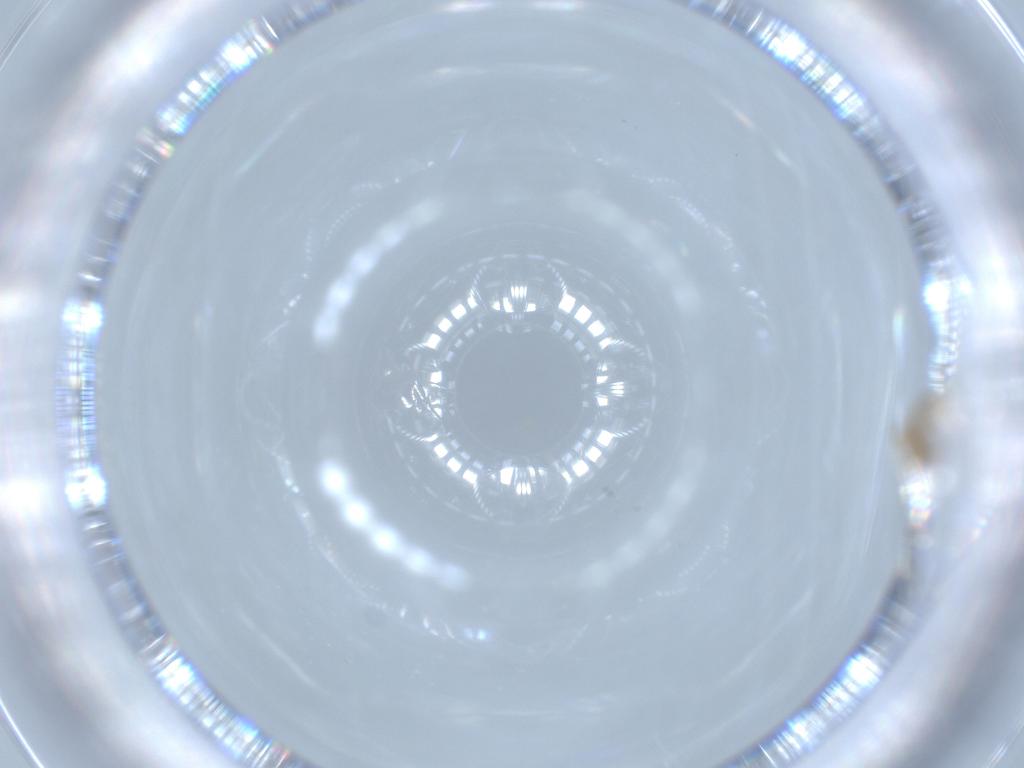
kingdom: Animalia
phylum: Arthropoda
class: Insecta
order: Diptera
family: Cecidomyiidae
